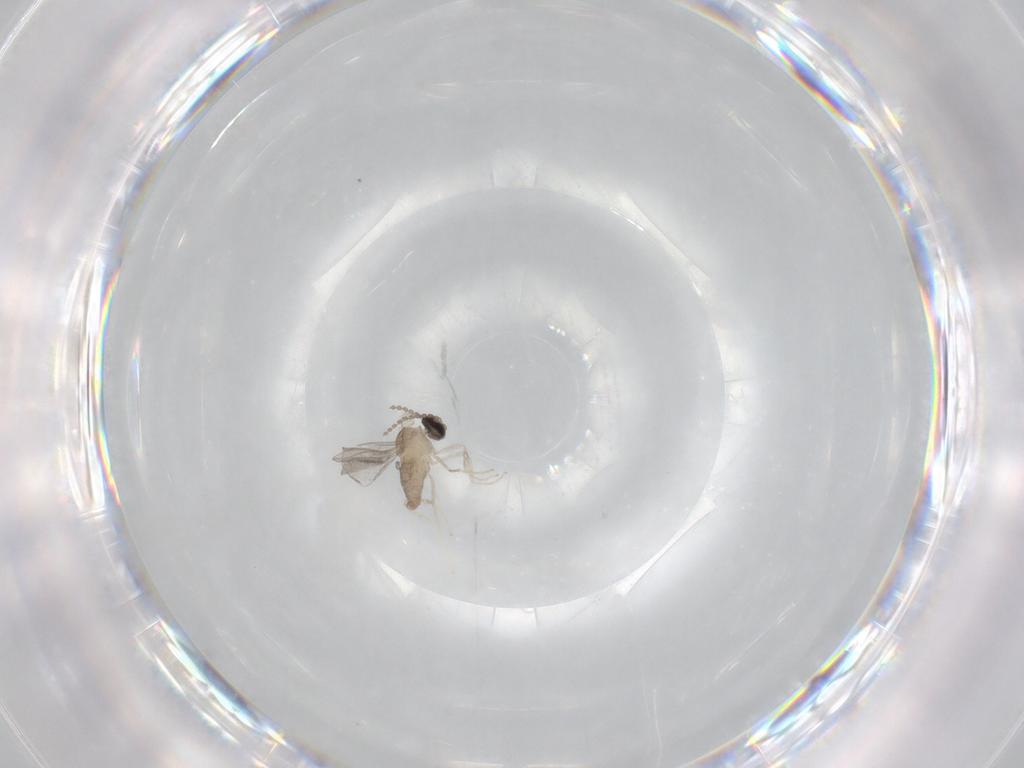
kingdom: Animalia
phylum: Arthropoda
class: Insecta
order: Diptera
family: Cecidomyiidae
